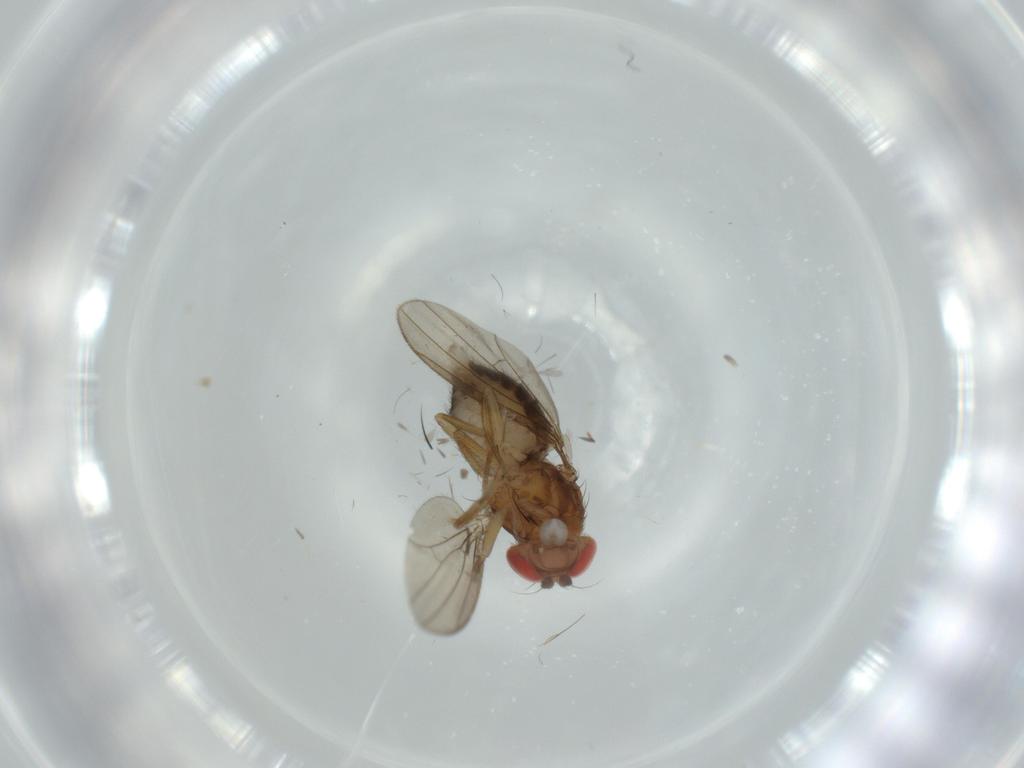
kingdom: Animalia
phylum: Arthropoda
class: Insecta
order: Diptera
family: Drosophilidae
